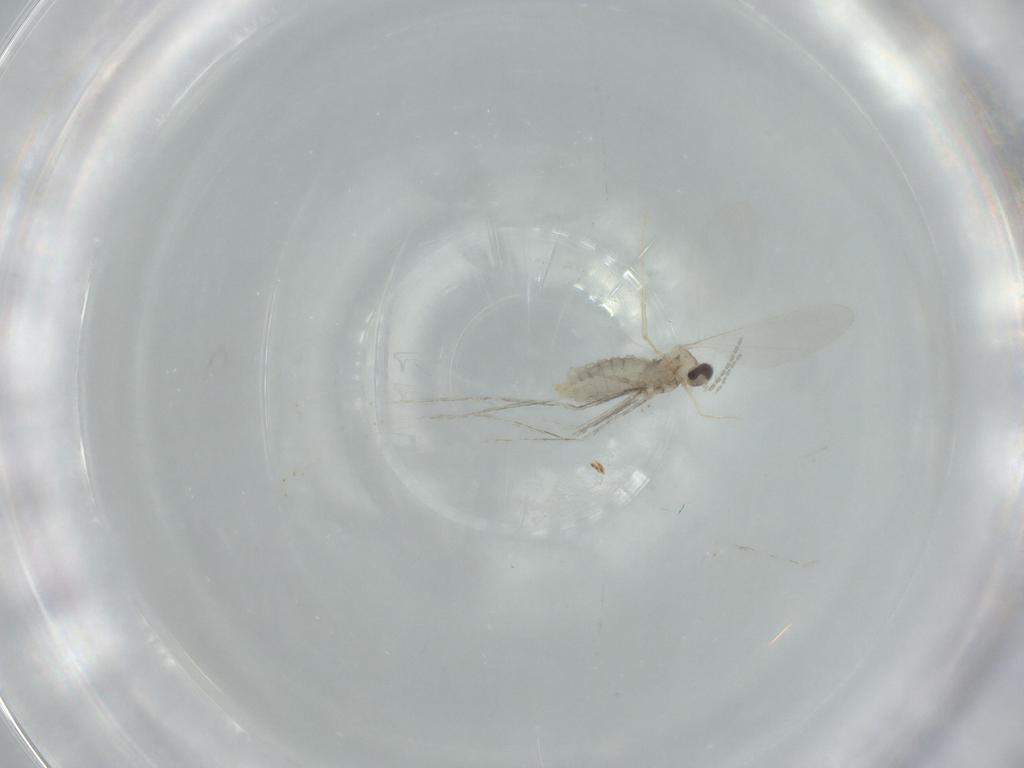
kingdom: Animalia
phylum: Arthropoda
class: Insecta
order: Diptera
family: Cecidomyiidae
